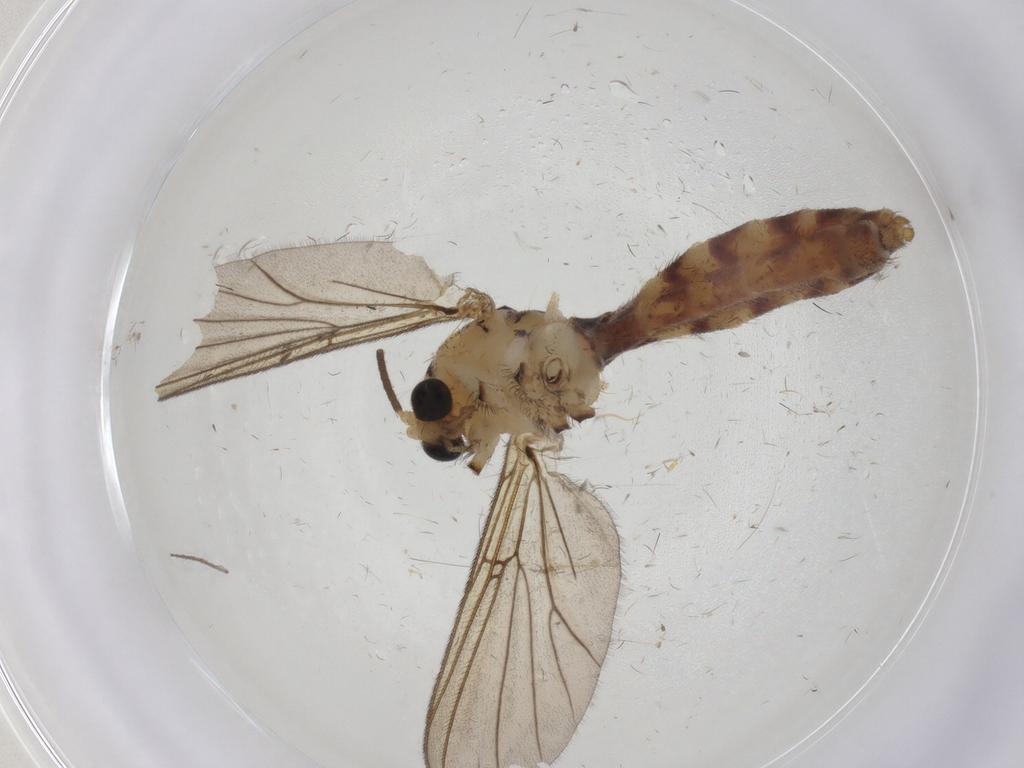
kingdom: Animalia
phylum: Arthropoda
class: Insecta
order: Diptera
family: Mycetophilidae
